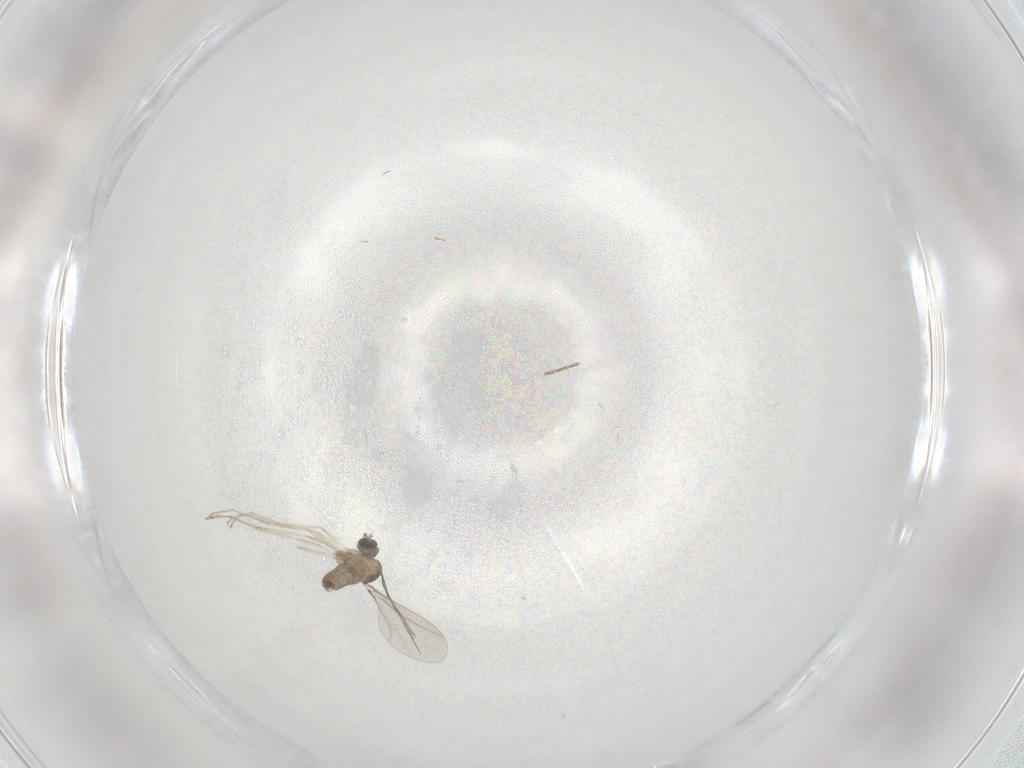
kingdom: Animalia
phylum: Arthropoda
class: Insecta
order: Diptera
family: Cecidomyiidae
